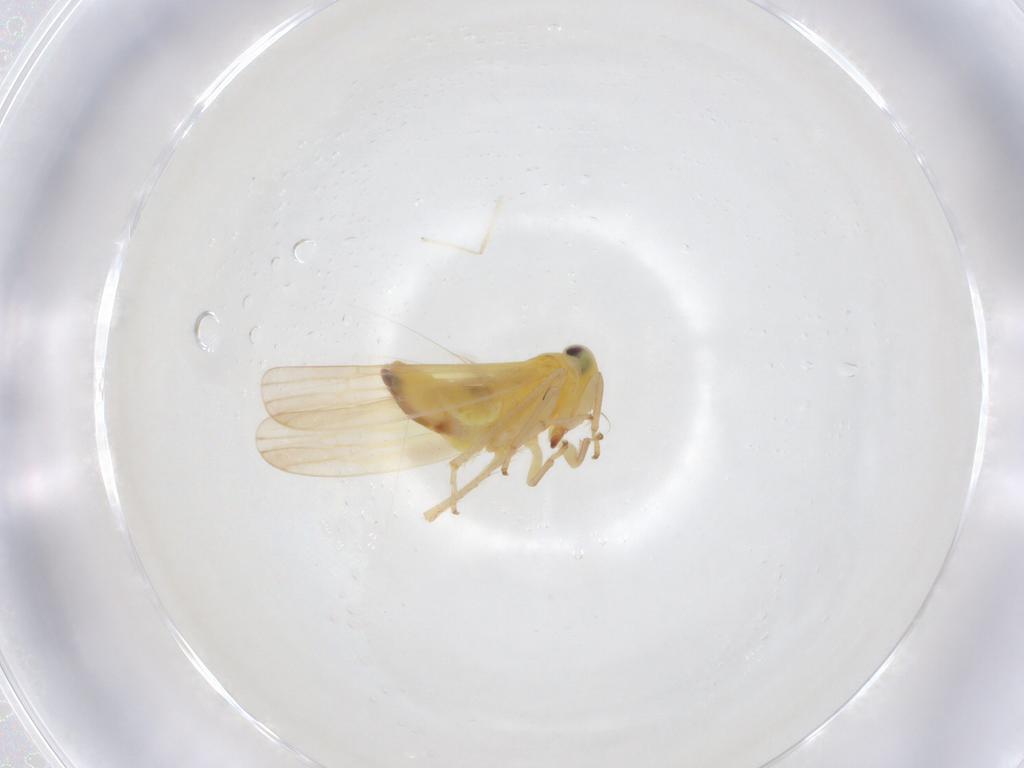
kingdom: Animalia
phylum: Arthropoda
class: Insecta
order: Hemiptera
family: Cicadellidae
